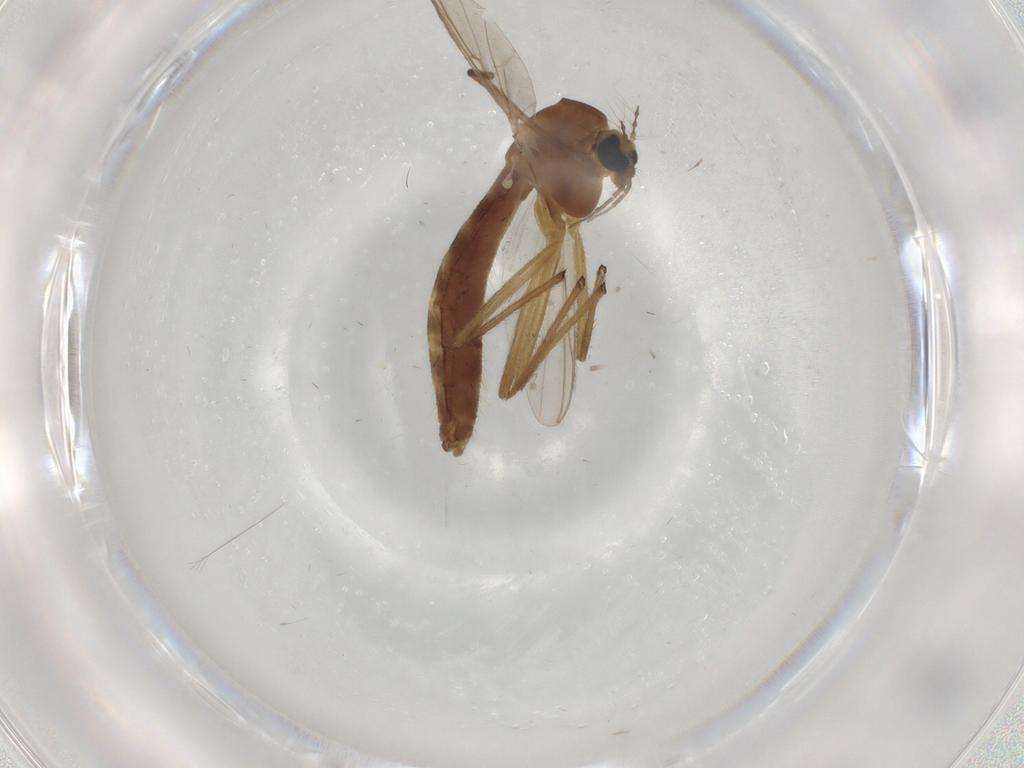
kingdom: Animalia
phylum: Arthropoda
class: Insecta
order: Diptera
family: Chironomidae
